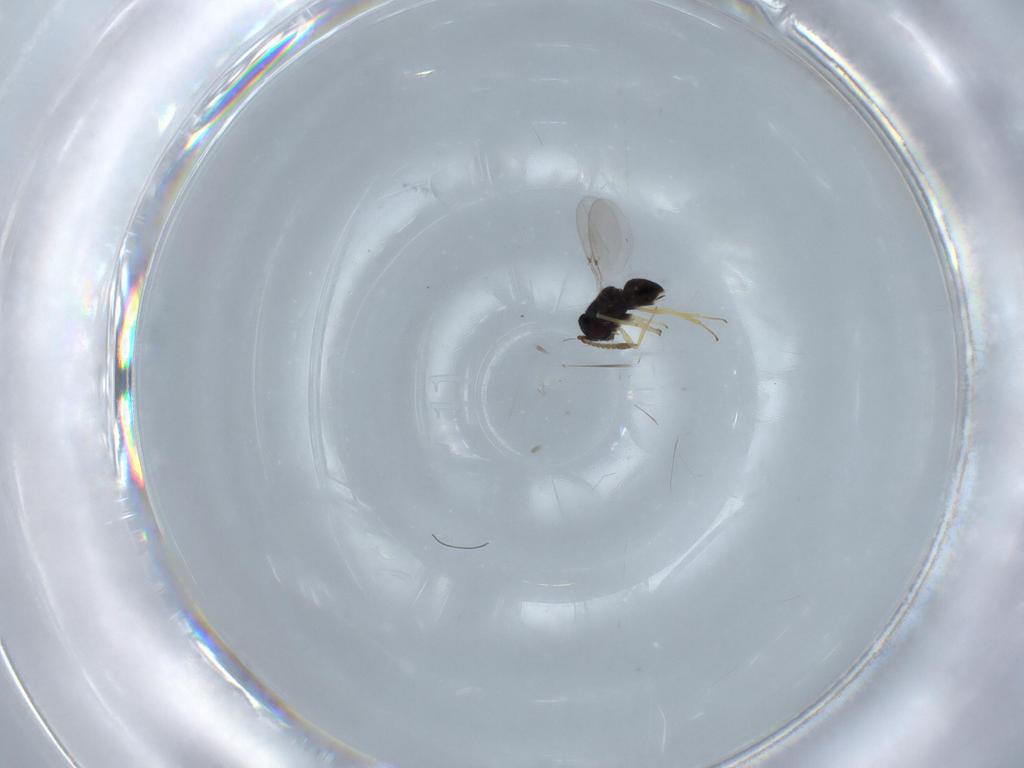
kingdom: Animalia
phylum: Arthropoda
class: Insecta
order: Hymenoptera
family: Encyrtidae
